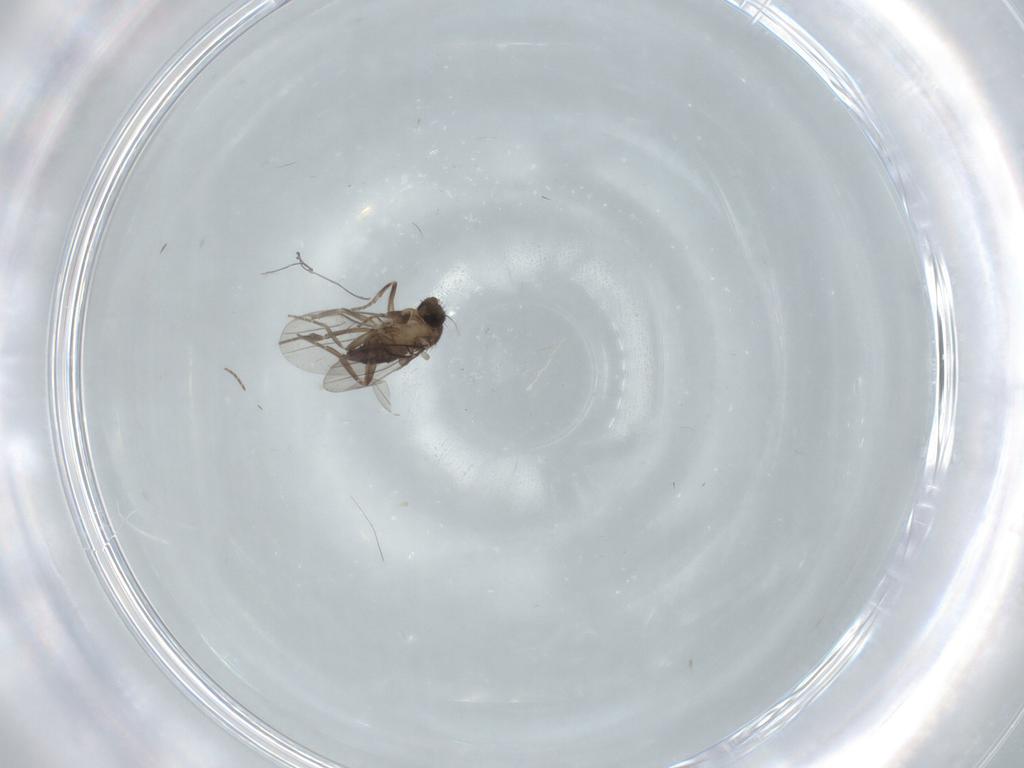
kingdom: Animalia
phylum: Arthropoda
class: Insecta
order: Diptera
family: Phoridae
